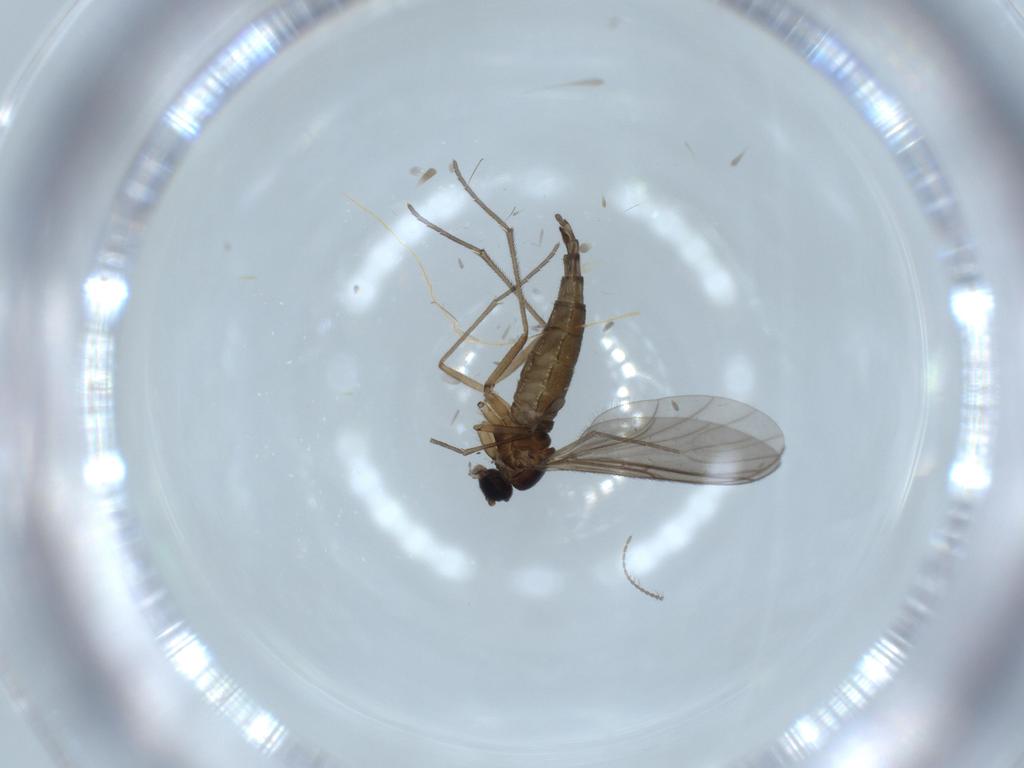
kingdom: Animalia
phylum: Arthropoda
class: Insecta
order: Diptera
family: Sciaridae
